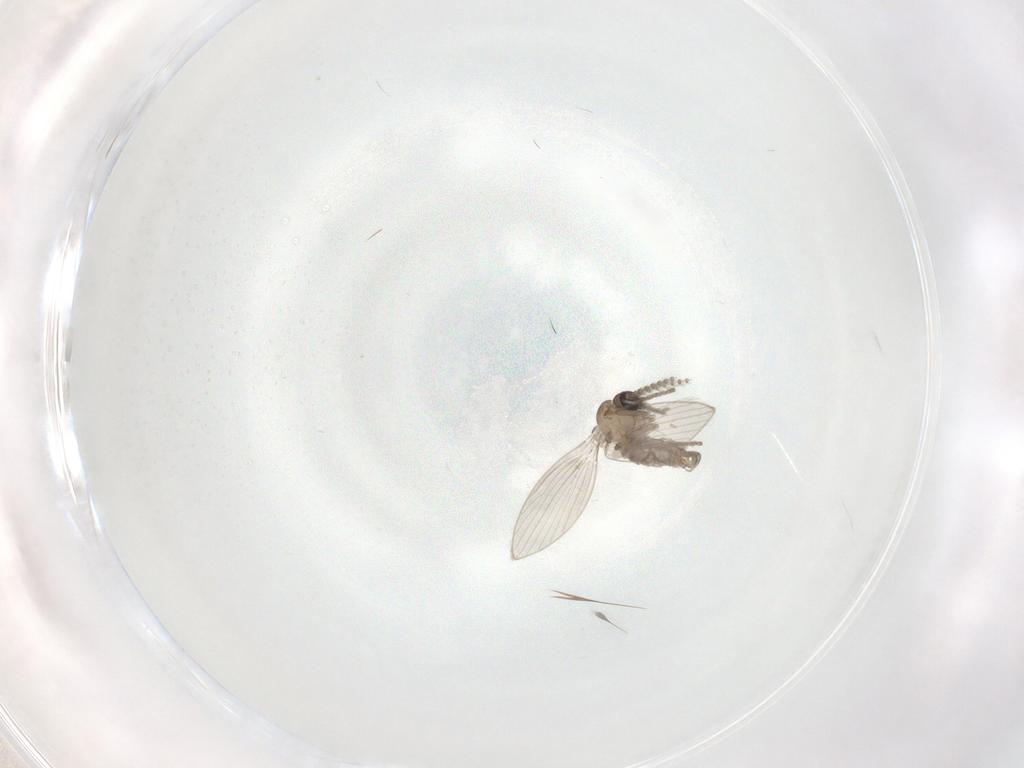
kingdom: Animalia
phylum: Arthropoda
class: Insecta
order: Diptera
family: Psychodidae
